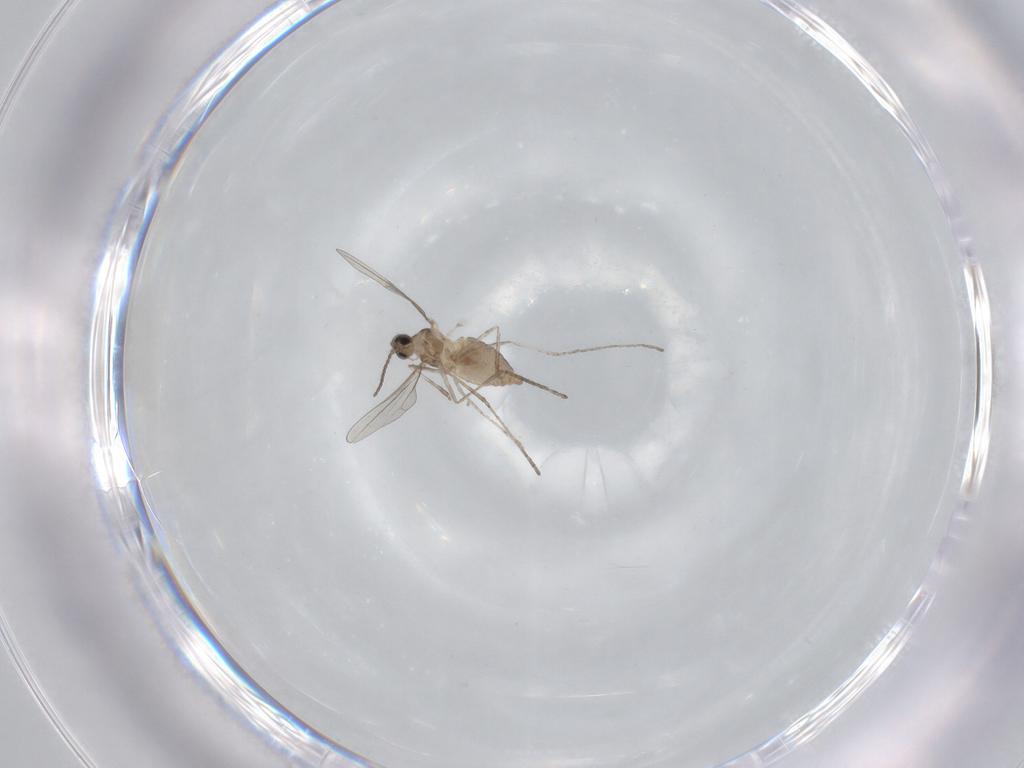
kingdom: Animalia
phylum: Arthropoda
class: Insecta
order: Diptera
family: Cecidomyiidae
